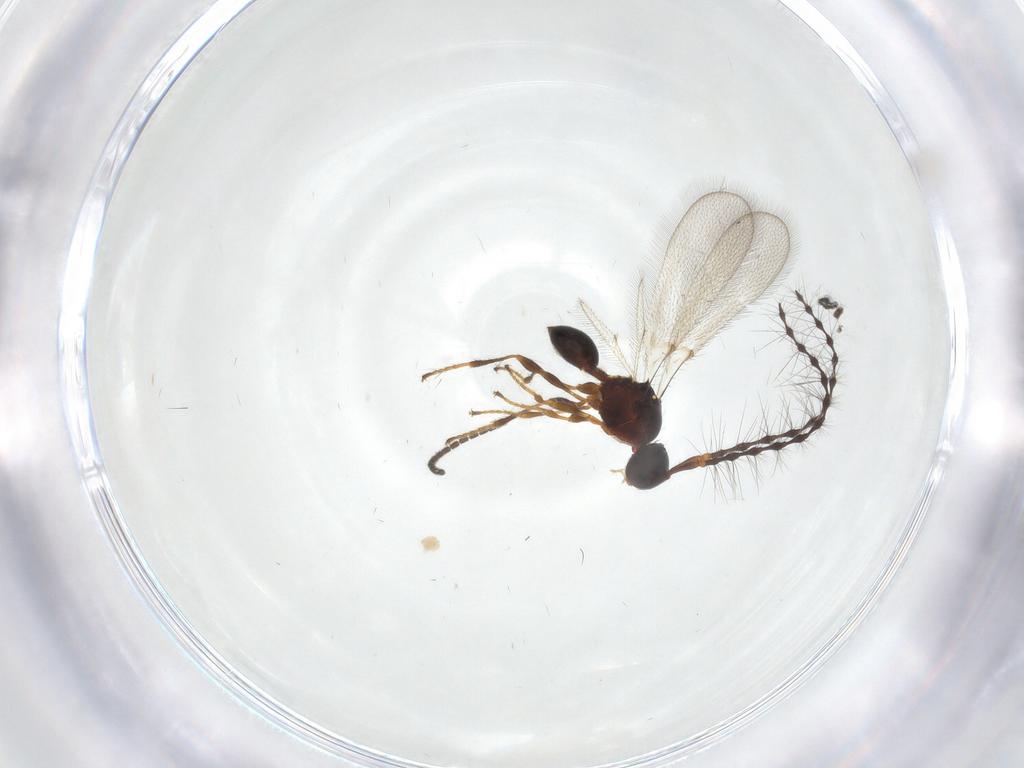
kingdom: Animalia
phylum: Arthropoda
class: Insecta
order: Hymenoptera
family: Diapriidae
